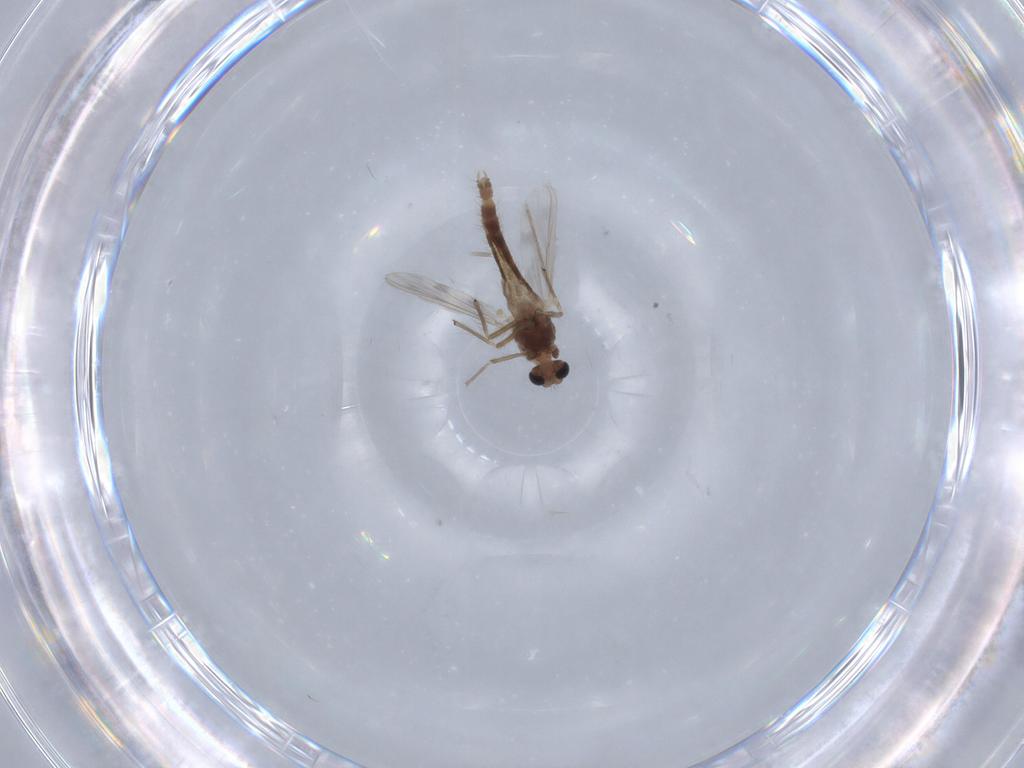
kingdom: Animalia
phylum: Arthropoda
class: Insecta
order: Diptera
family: Chironomidae
